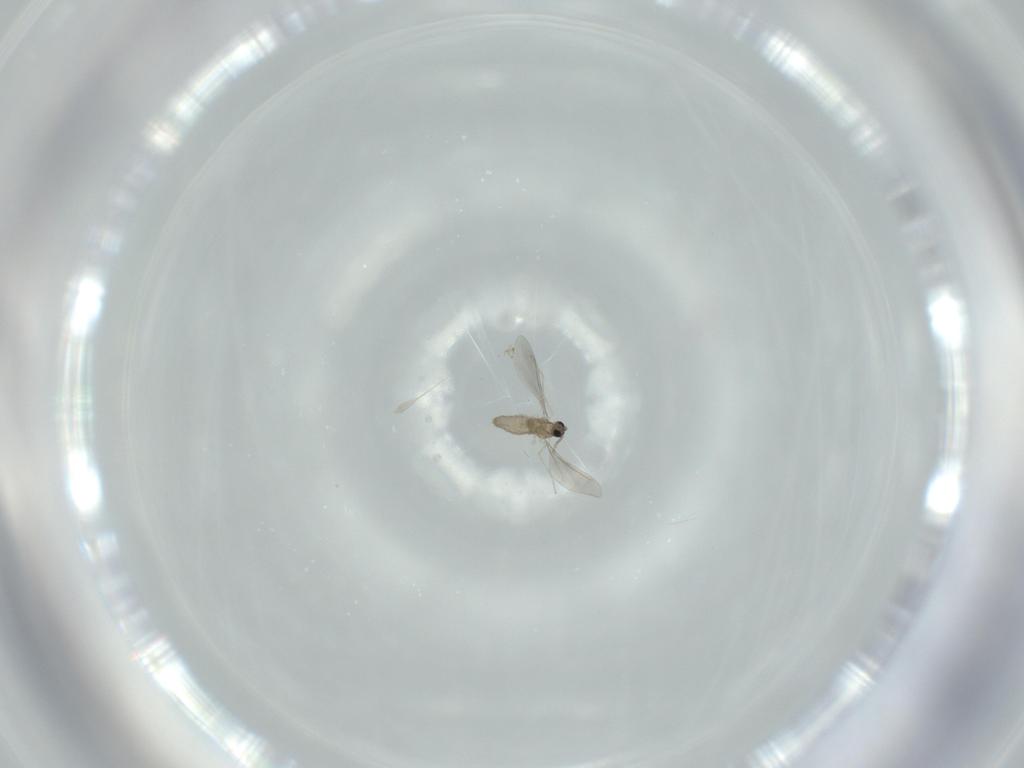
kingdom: Animalia
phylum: Arthropoda
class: Insecta
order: Diptera
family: Cecidomyiidae
